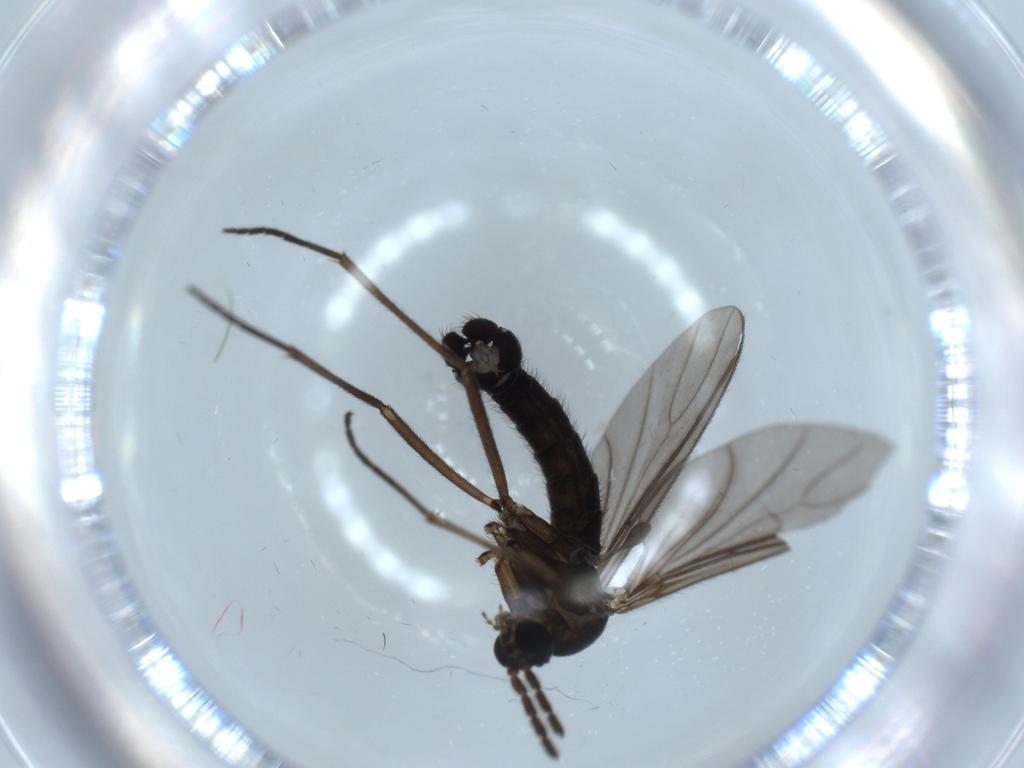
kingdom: Animalia
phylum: Arthropoda
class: Insecta
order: Diptera
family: Sciaridae
